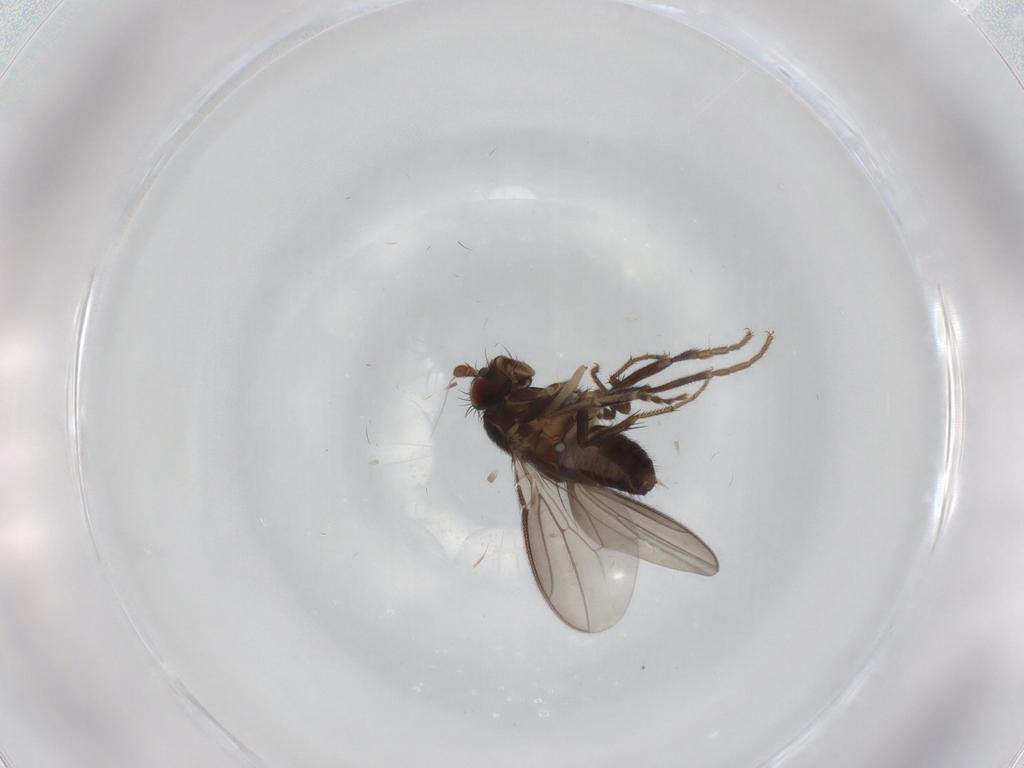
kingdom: Animalia
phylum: Arthropoda
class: Insecta
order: Diptera
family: Sphaeroceridae
